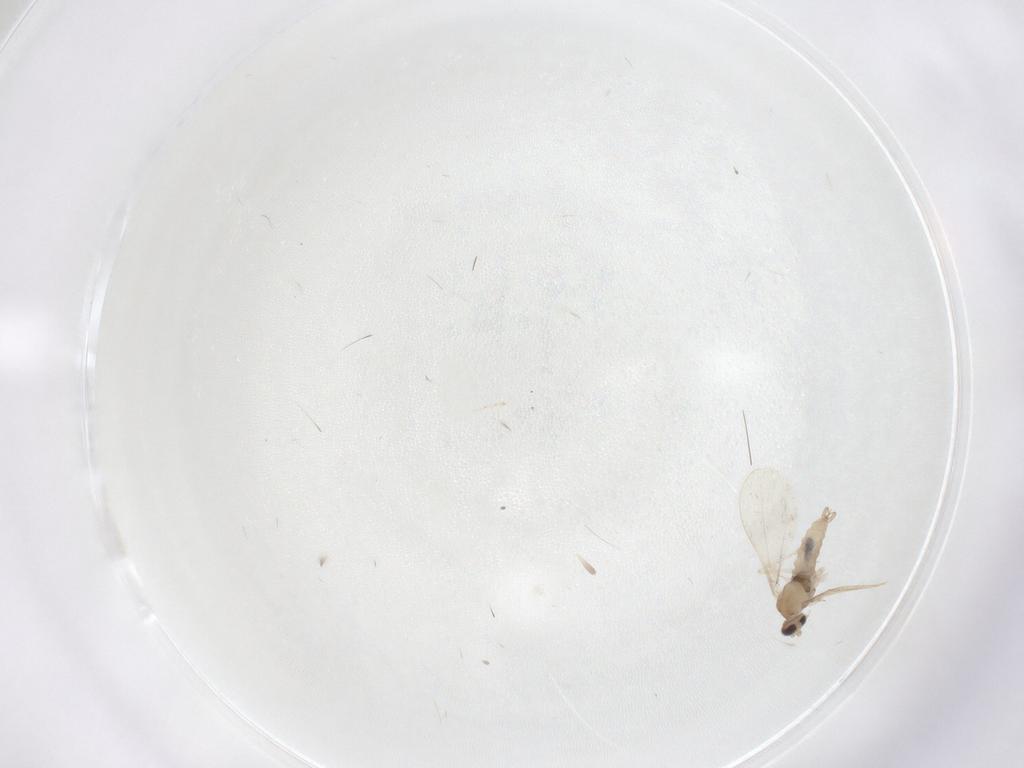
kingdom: Animalia
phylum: Arthropoda
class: Insecta
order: Diptera
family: Cecidomyiidae
